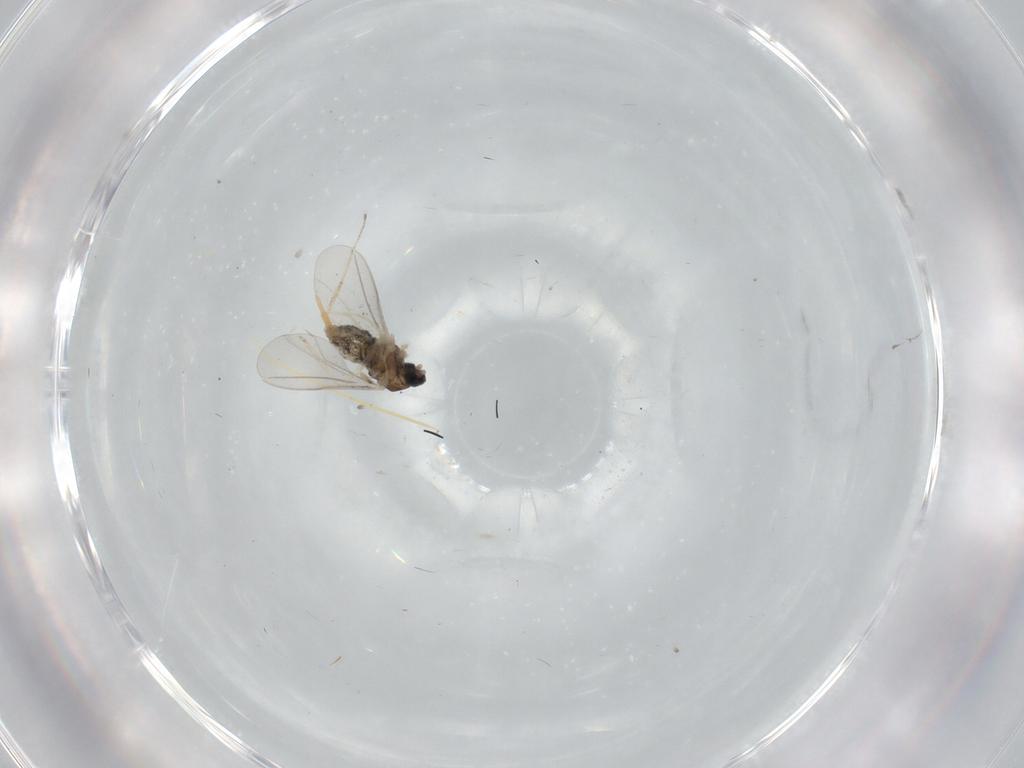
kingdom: Animalia
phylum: Arthropoda
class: Insecta
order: Diptera
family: Cecidomyiidae
